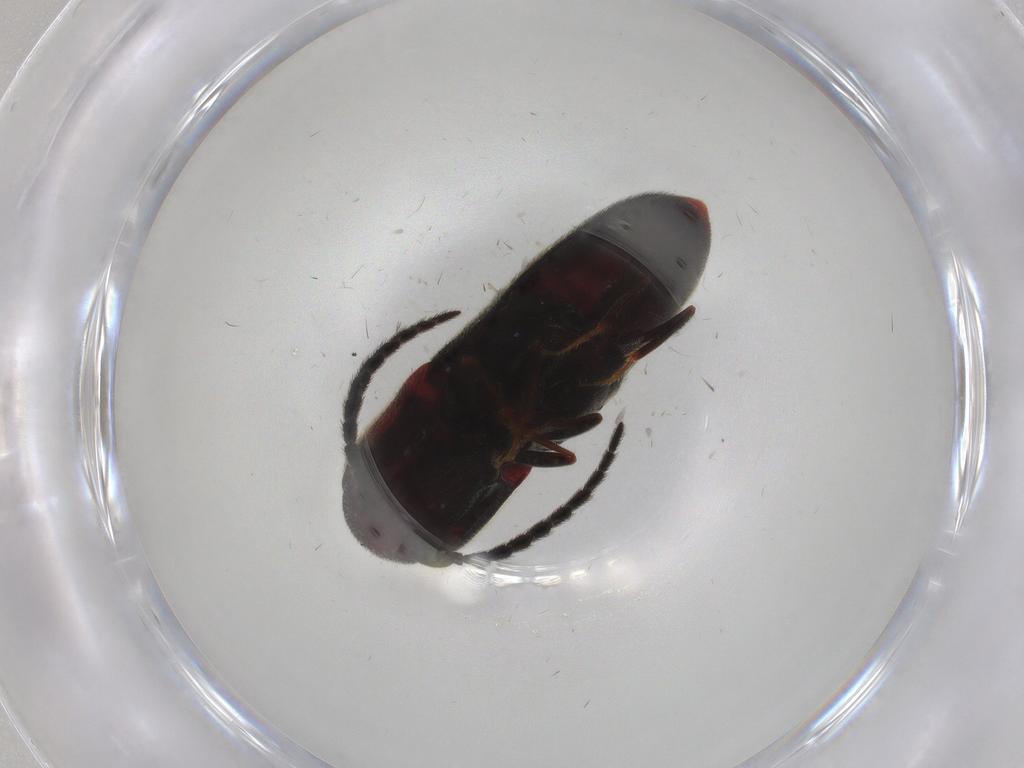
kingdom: Animalia
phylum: Arthropoda
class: Insecta
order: Coleoptera
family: Eucnemidae
